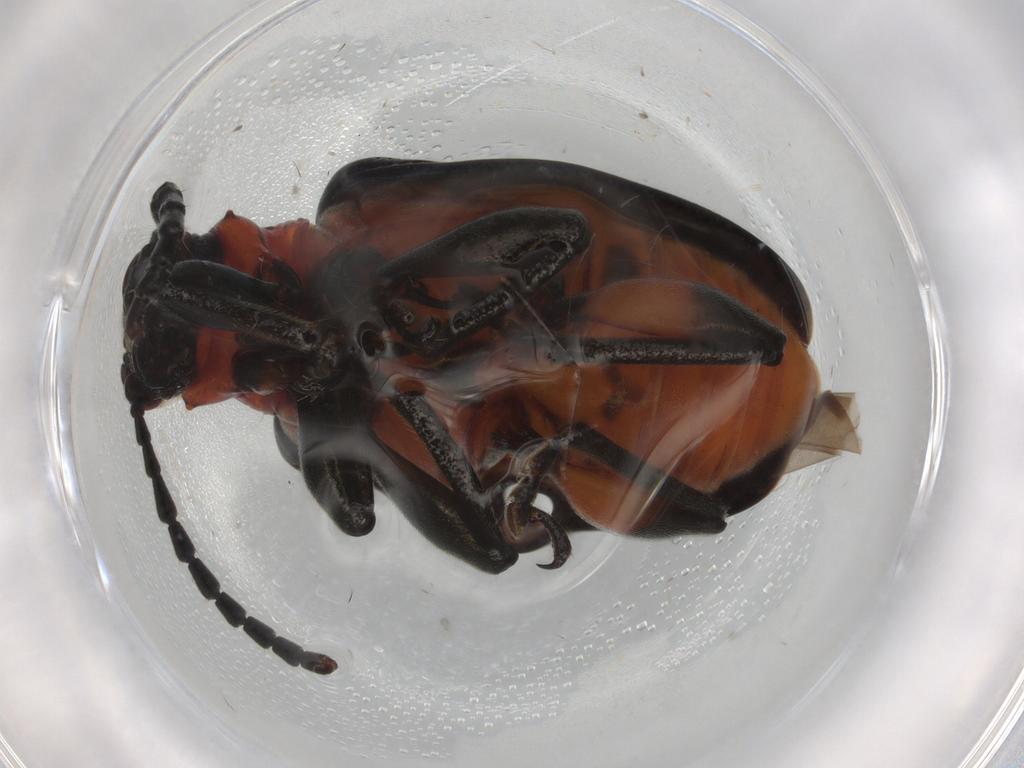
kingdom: Animalia
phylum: Arthropoda
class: Insecta
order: Coleoptera
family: Chrysomelidae
